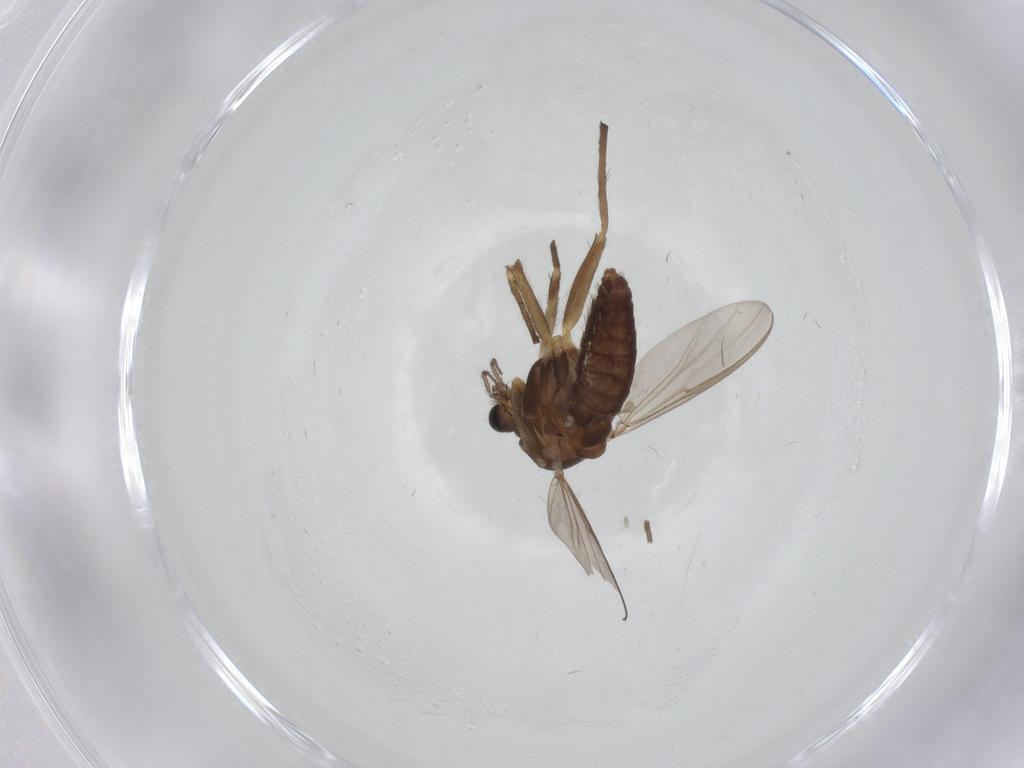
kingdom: Animalia
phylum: Arthropoda
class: Insecta
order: Diptera
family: Chironomidae
